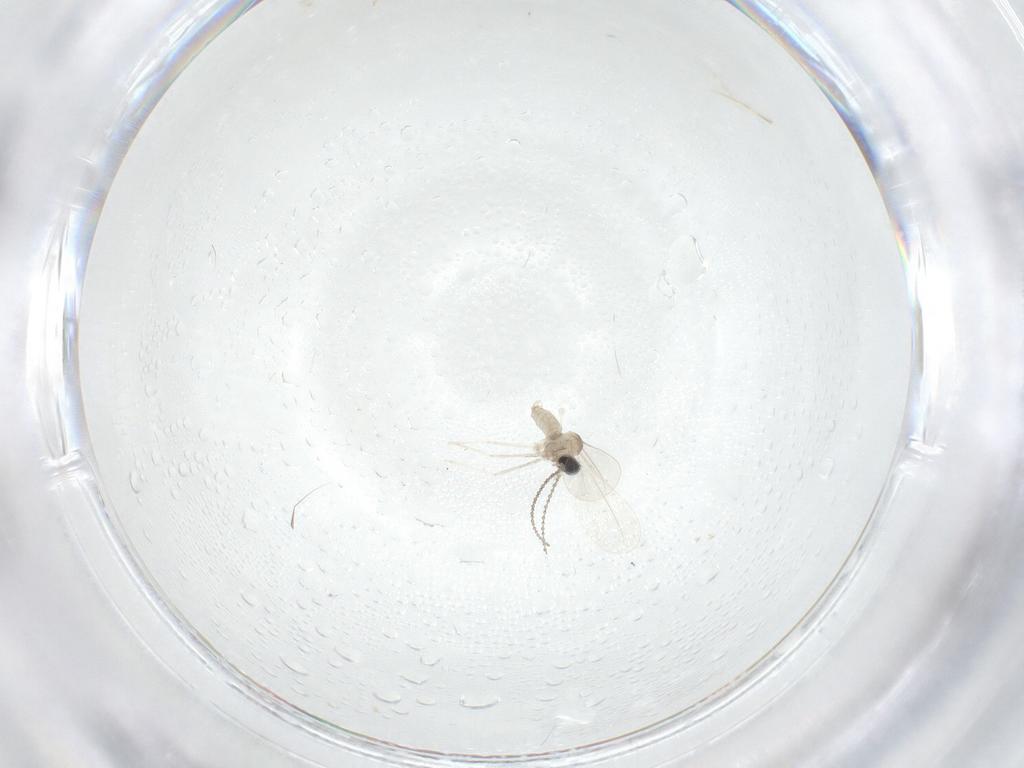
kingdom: Animalia
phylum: Arthropoda
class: Insecta
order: Diptera
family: Cecidomyiidae
